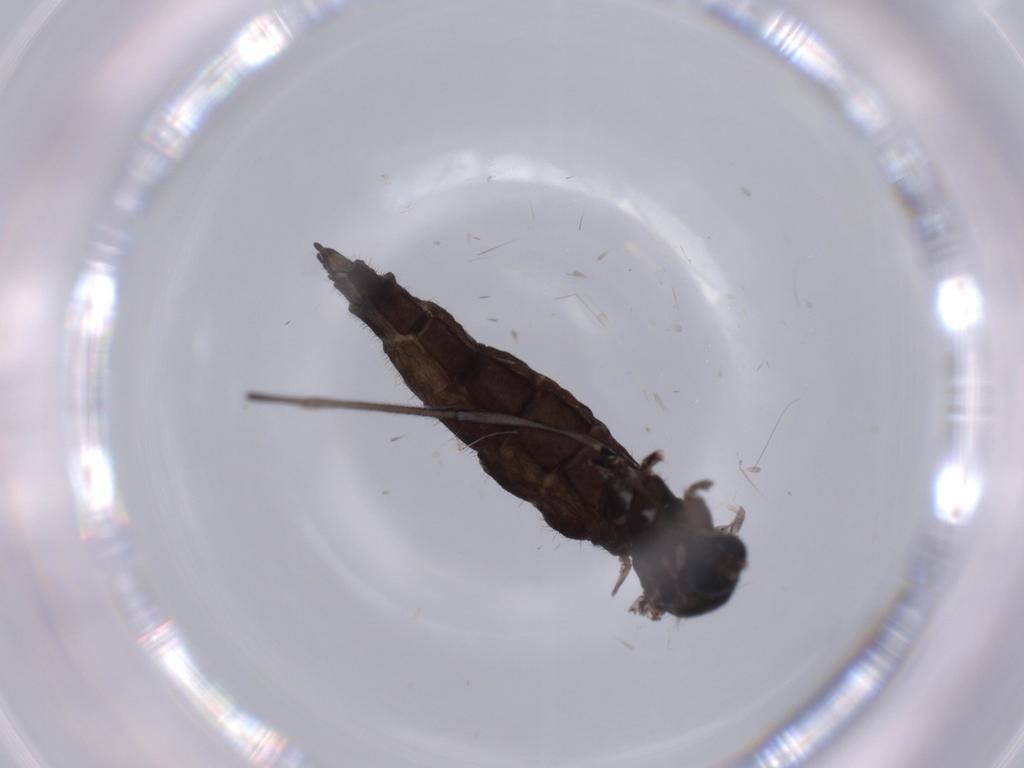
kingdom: Animalia
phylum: Arthropoda
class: Insecta
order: Diptera
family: Sciaridae
